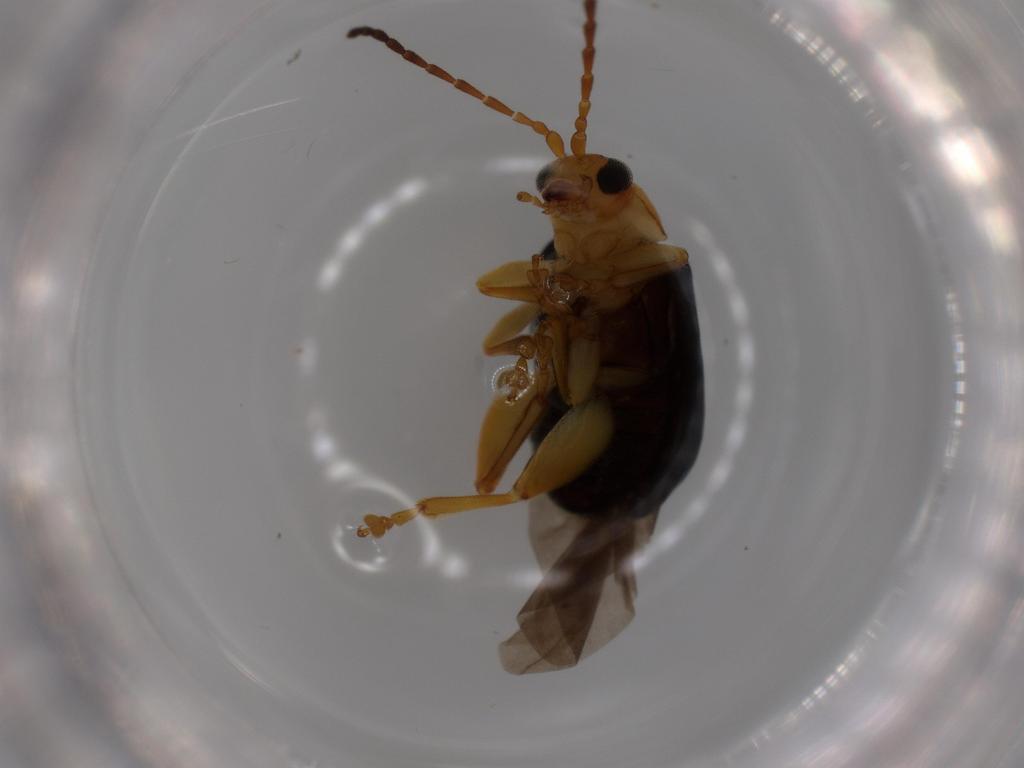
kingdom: Animalia
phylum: Arthropoda
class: Insecta
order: Coleoptera
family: Chrysomelidae
